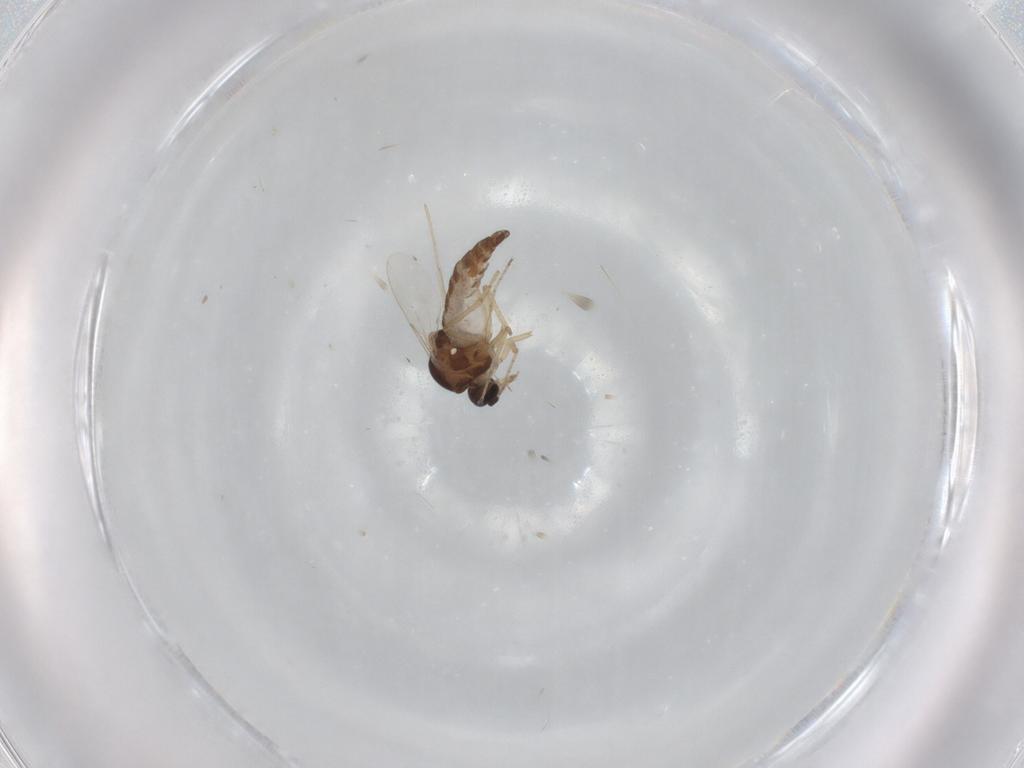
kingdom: Animalia
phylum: Arthropoda
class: Insecta
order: Diptera
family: Ceratopogonidae
